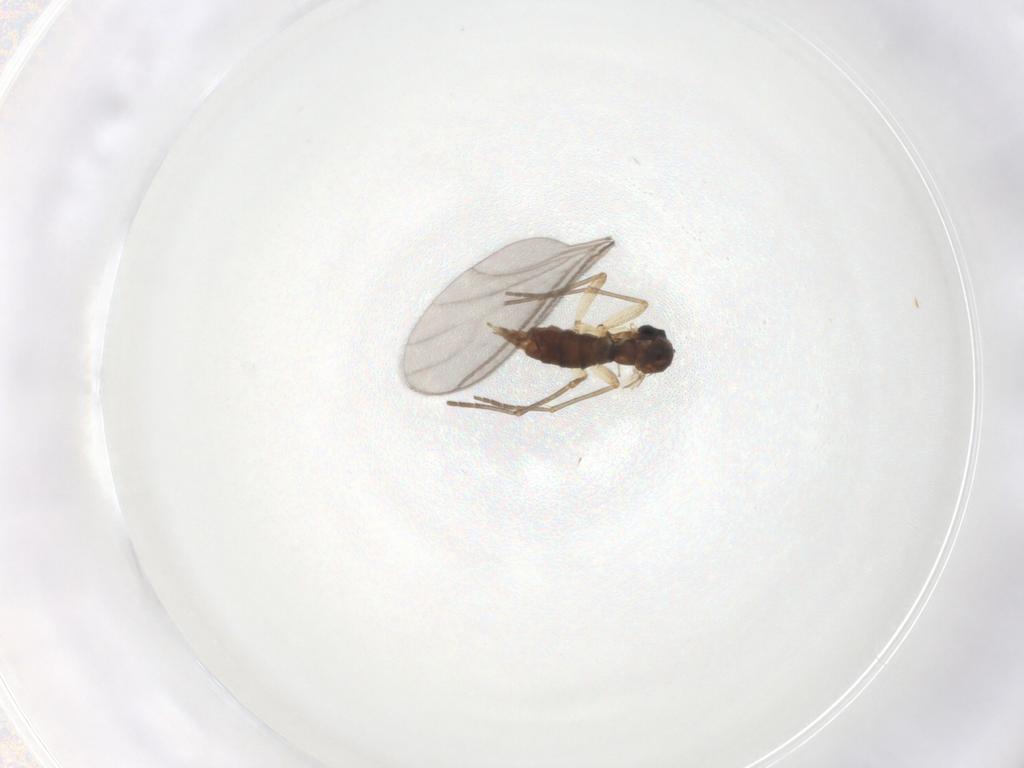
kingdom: Animalia
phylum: Arthropoda
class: Insecta
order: Diptera
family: Sciaridae
